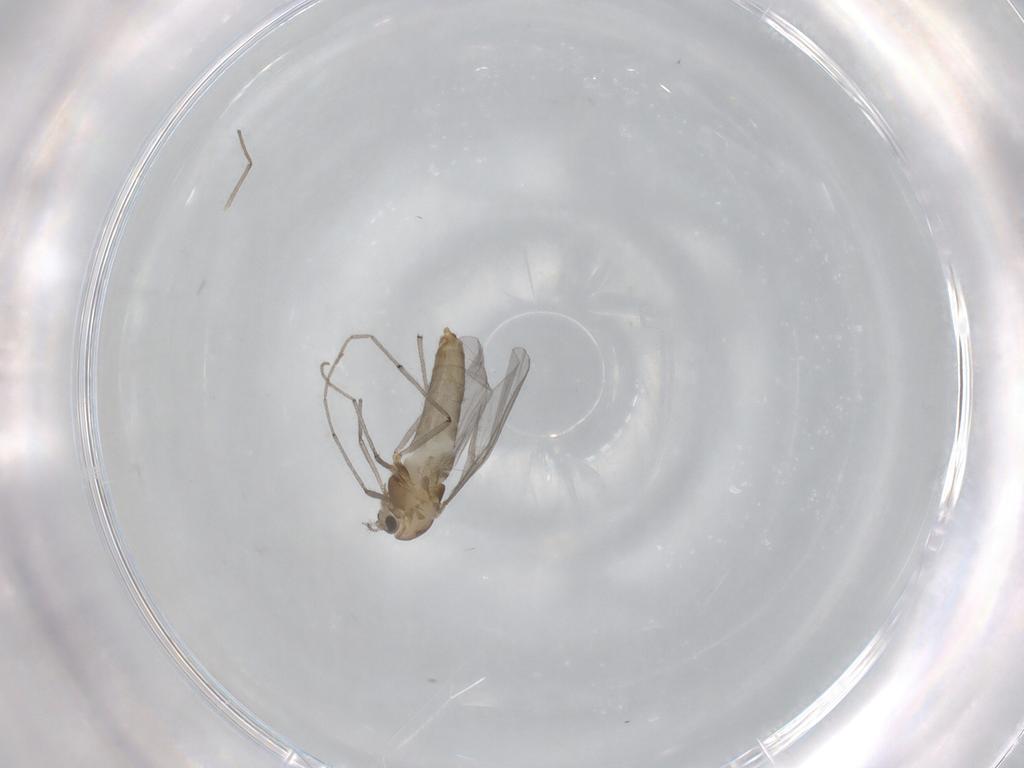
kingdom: Animalia
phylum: Arthropoda
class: Insecta
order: Diptera
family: Chironomidae
